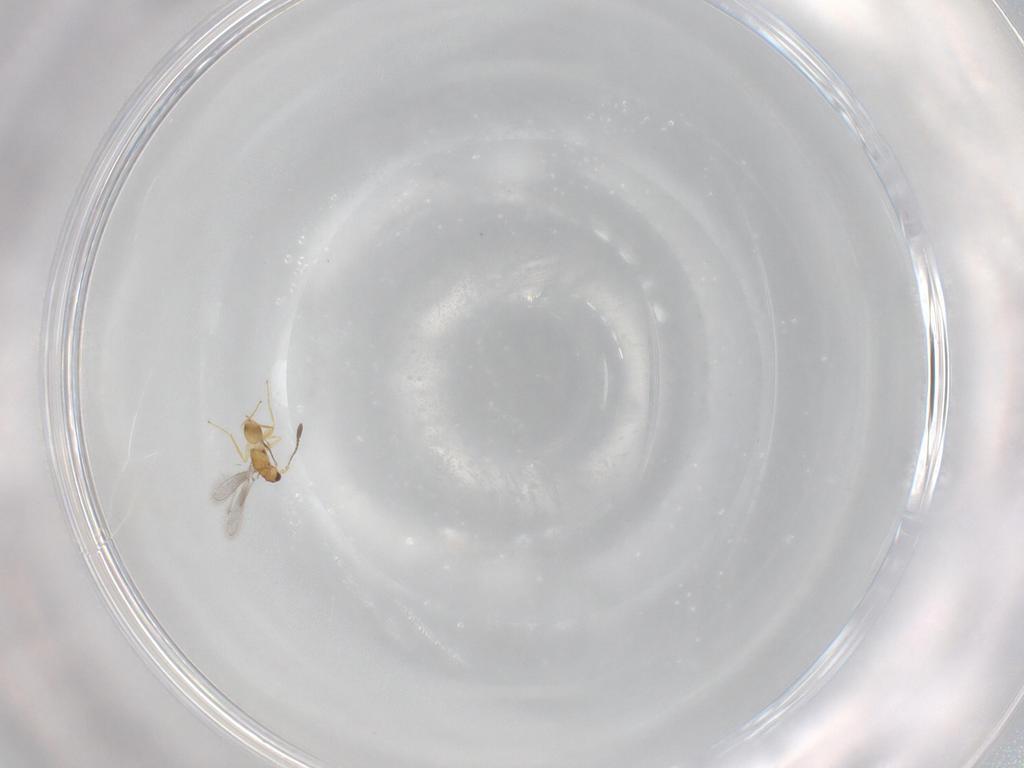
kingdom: Animalia
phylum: Arthropoda
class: Insecta
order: Hymenoptera
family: Mymaridae
